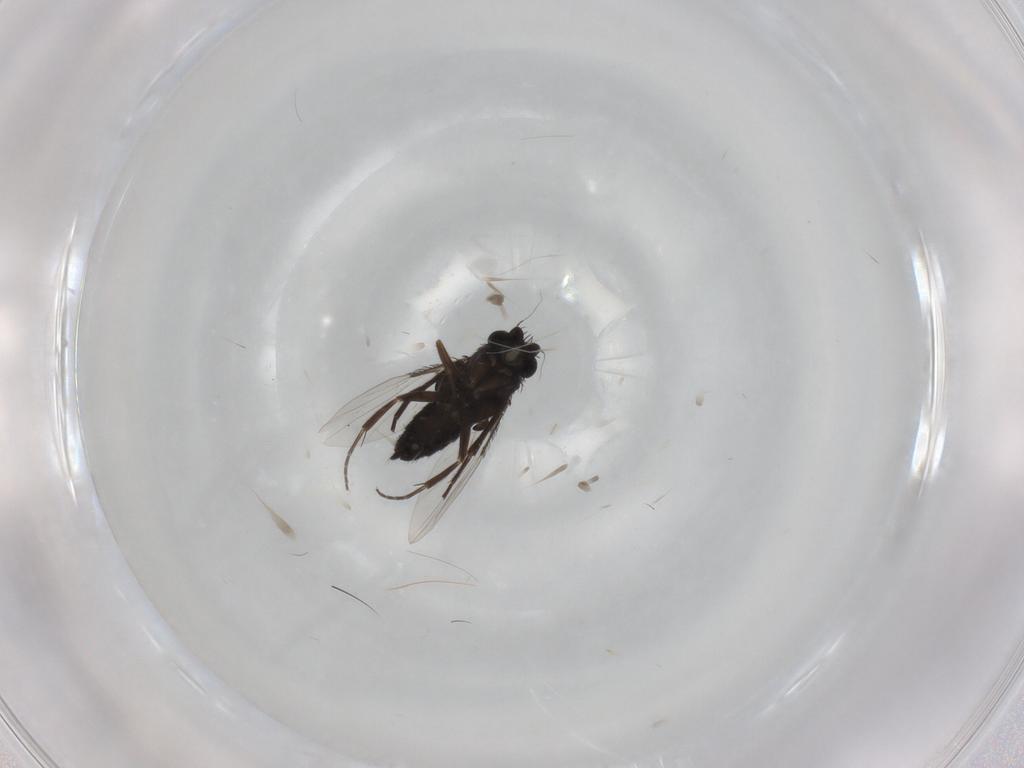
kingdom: Animalia
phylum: Arthropoda
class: Insecta
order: Diptera
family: Phoridae
